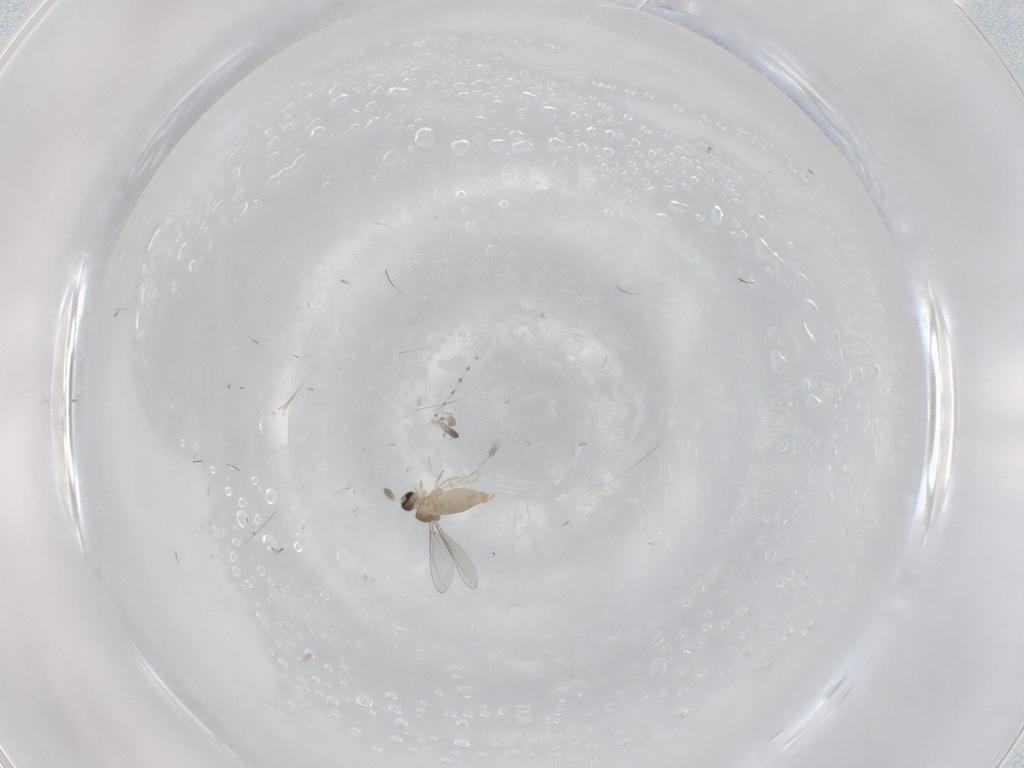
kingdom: Animalia
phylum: Arthropoda
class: Insecta
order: Diptera
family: Cecidomyiidae
